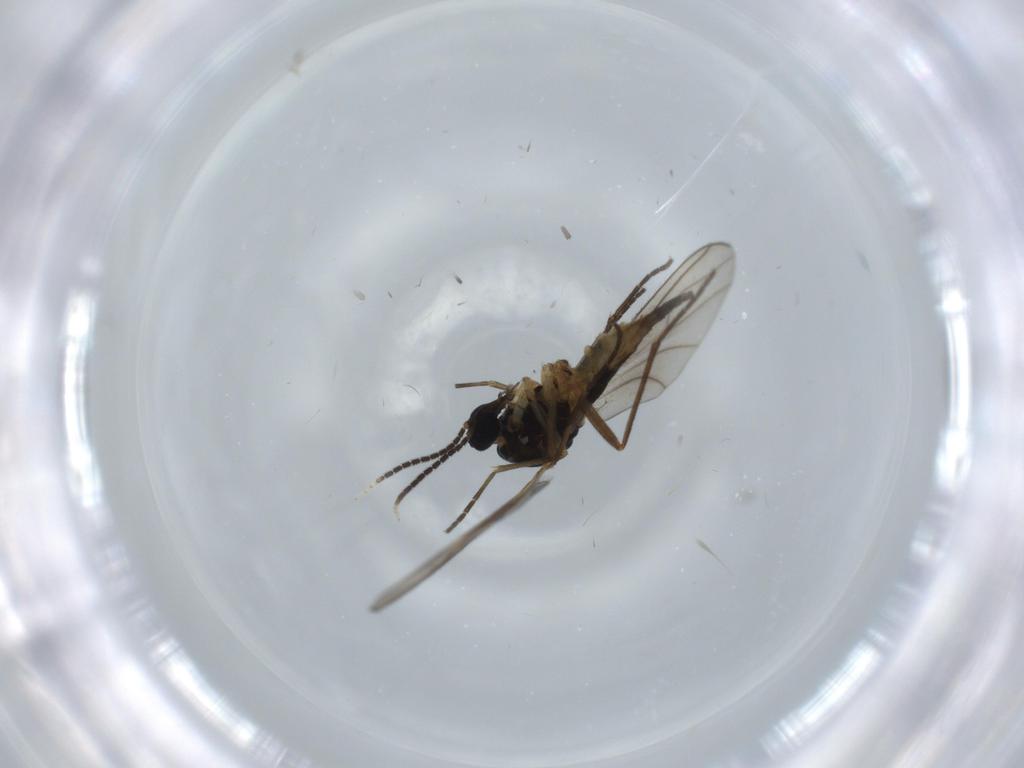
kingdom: Animalia
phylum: Arthropoda
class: Insecta
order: Diptera
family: Sciaridae
